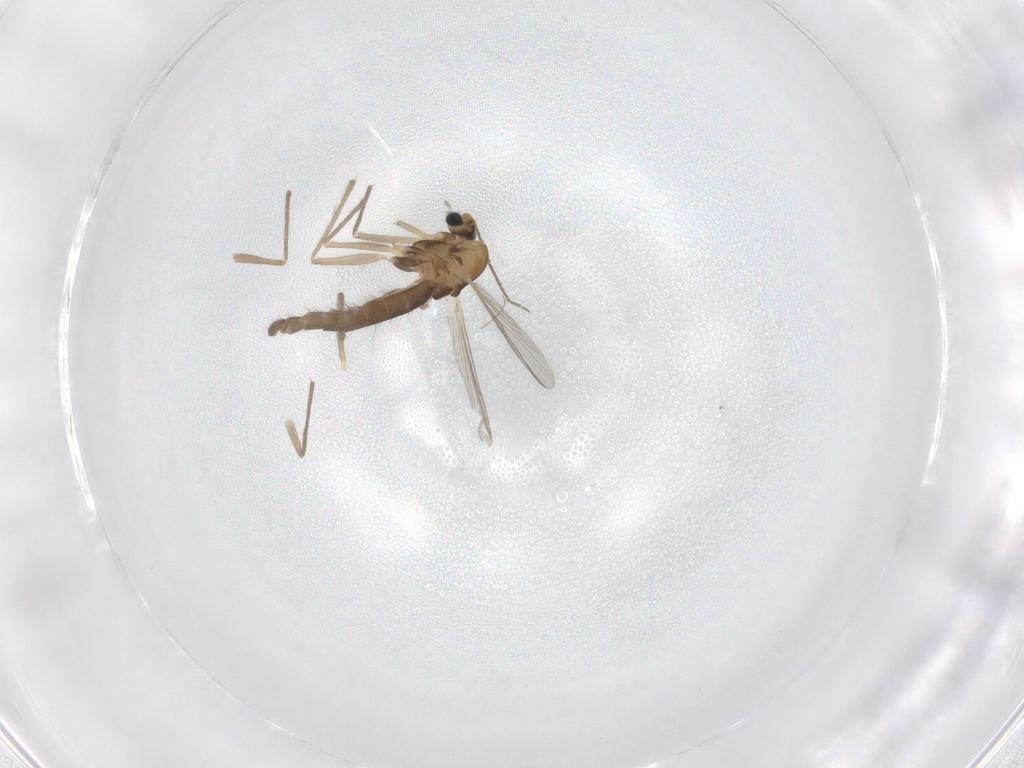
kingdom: Animalia
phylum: Arthropoda
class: Insecta
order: Diptera
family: Chironomidae
